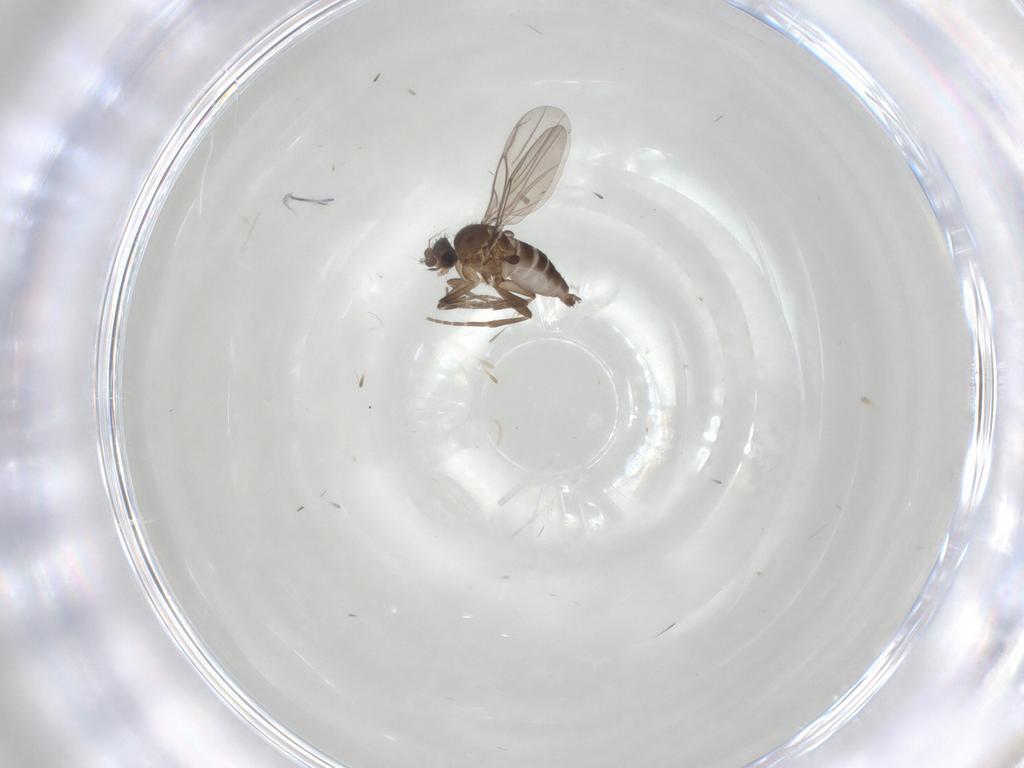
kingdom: Animalia
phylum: Arthropoda
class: Insecta
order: Diptera
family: Phoridae
